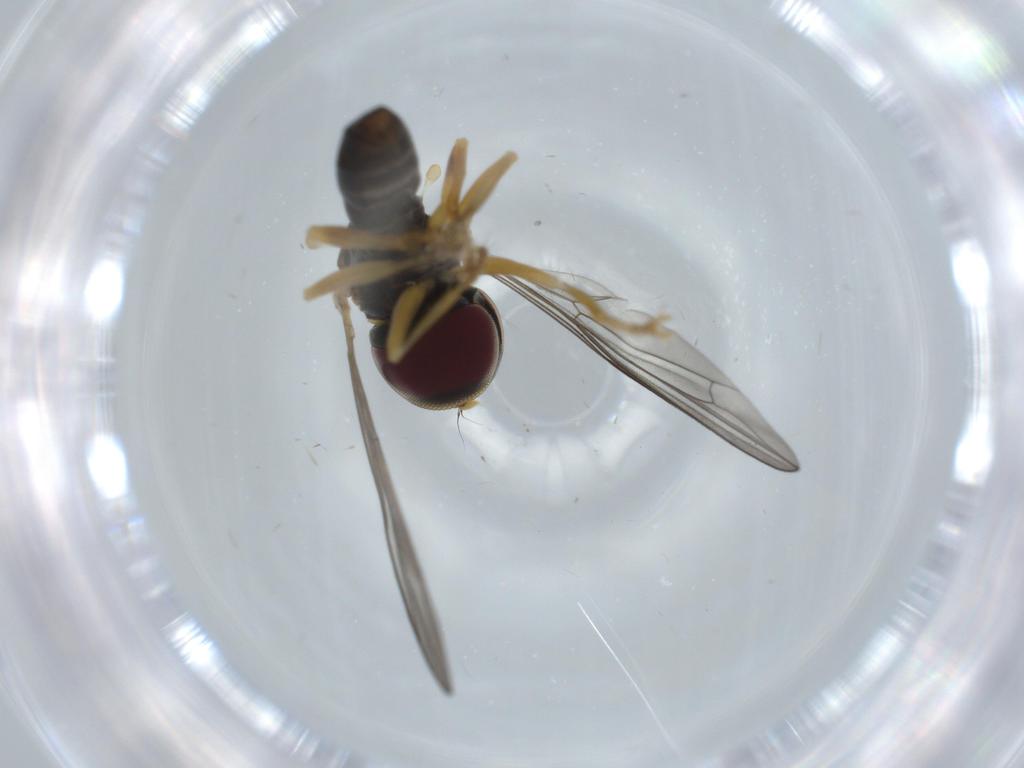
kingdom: Animalia
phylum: Arthropoda
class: Insecta
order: Diptera
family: Pipunculidae
